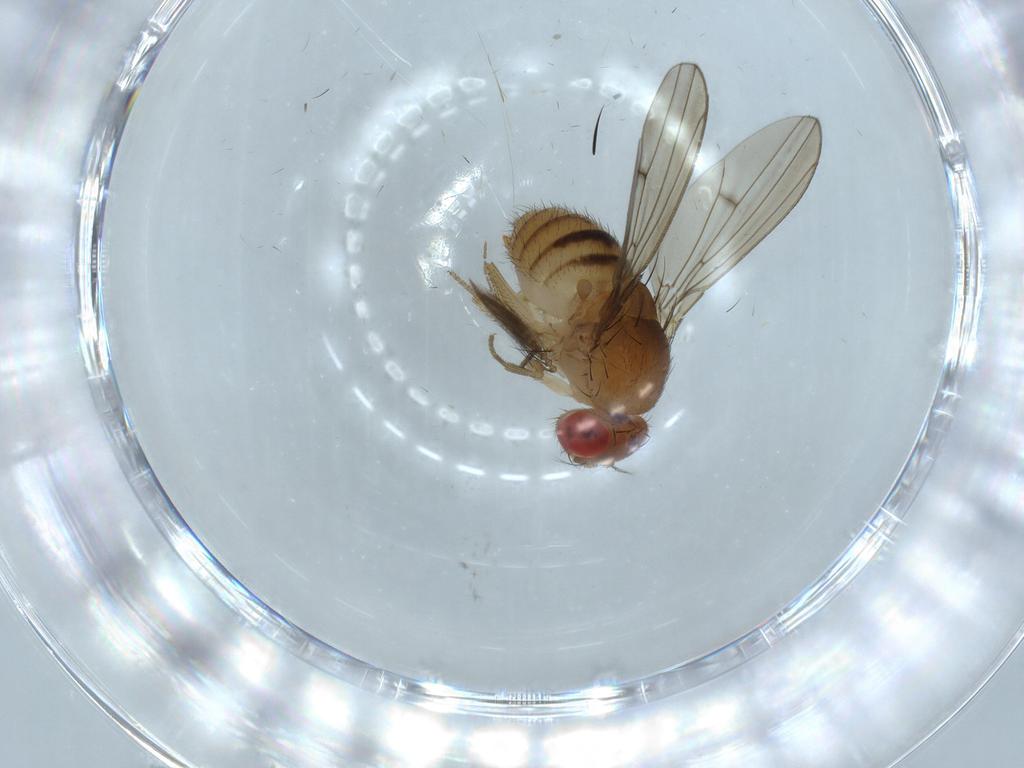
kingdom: Animalia
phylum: Arthropoda
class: Insecta
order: Diptera
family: Drosophilidae
